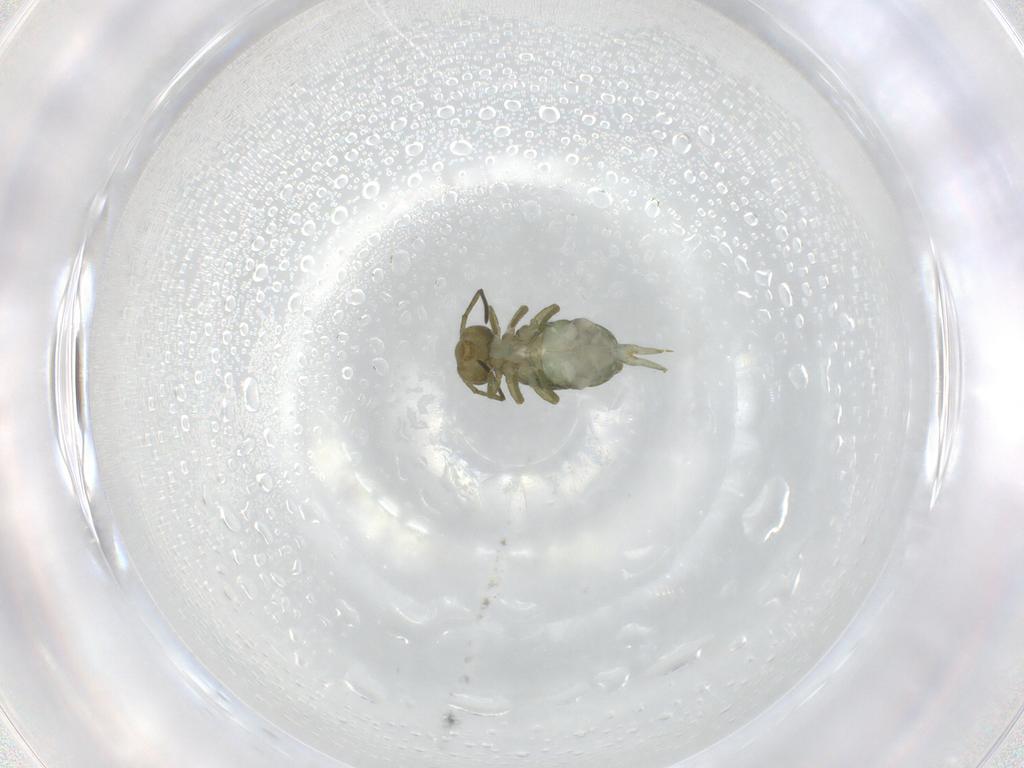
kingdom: Animalia
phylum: Arthropoda
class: Collembola
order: Symphypleona
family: Sminthuridae
